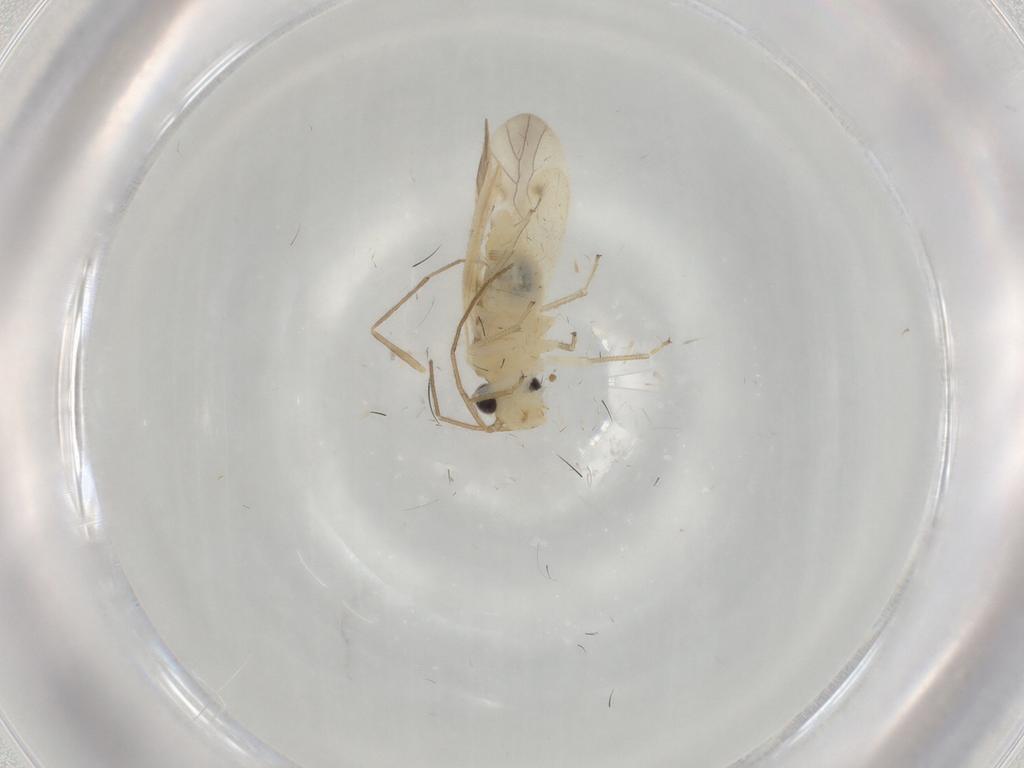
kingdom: Animalia
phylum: Arthropoda
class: Insecta
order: Psocodea
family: Caeciliusidae
